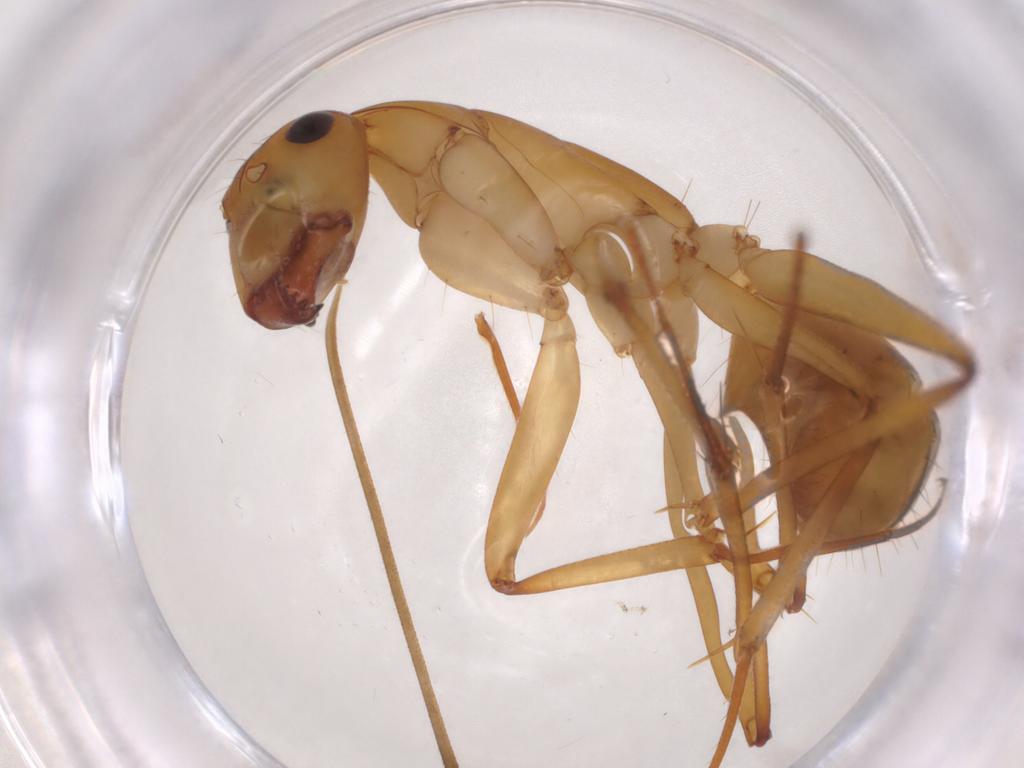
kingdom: Animalia
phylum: Arthropoda
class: Insecta
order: Hymenoptera
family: Formicidae
